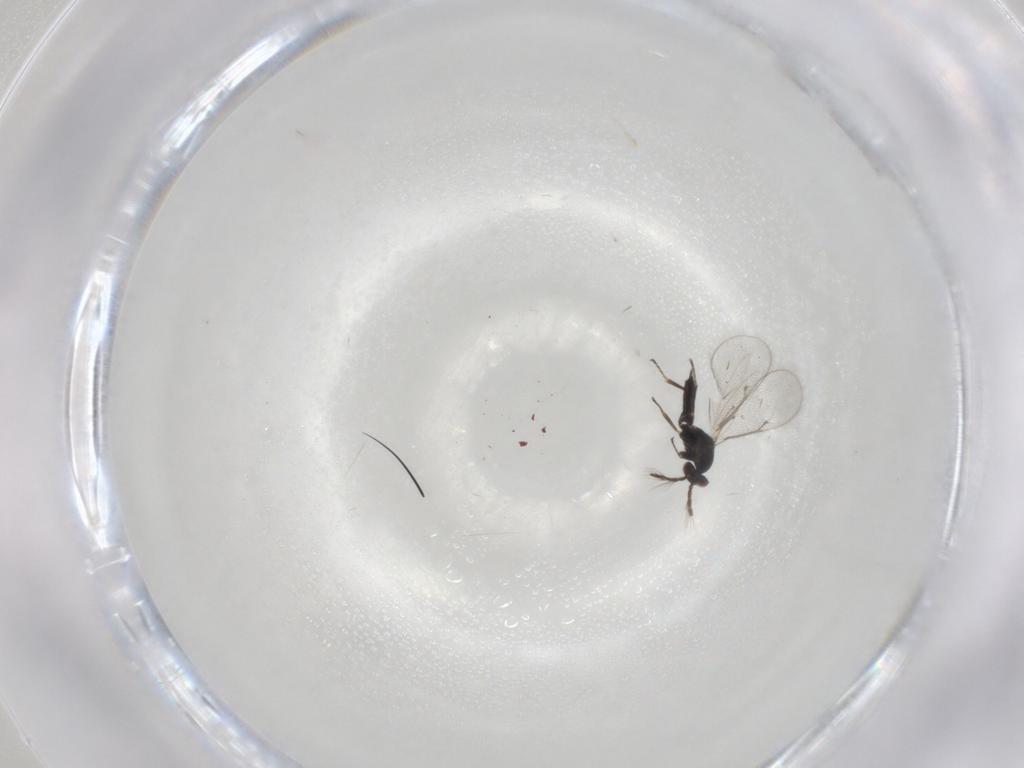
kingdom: Animalia
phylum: Arthropoda
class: Insecta
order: Hymenoptera
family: Eulophidae
